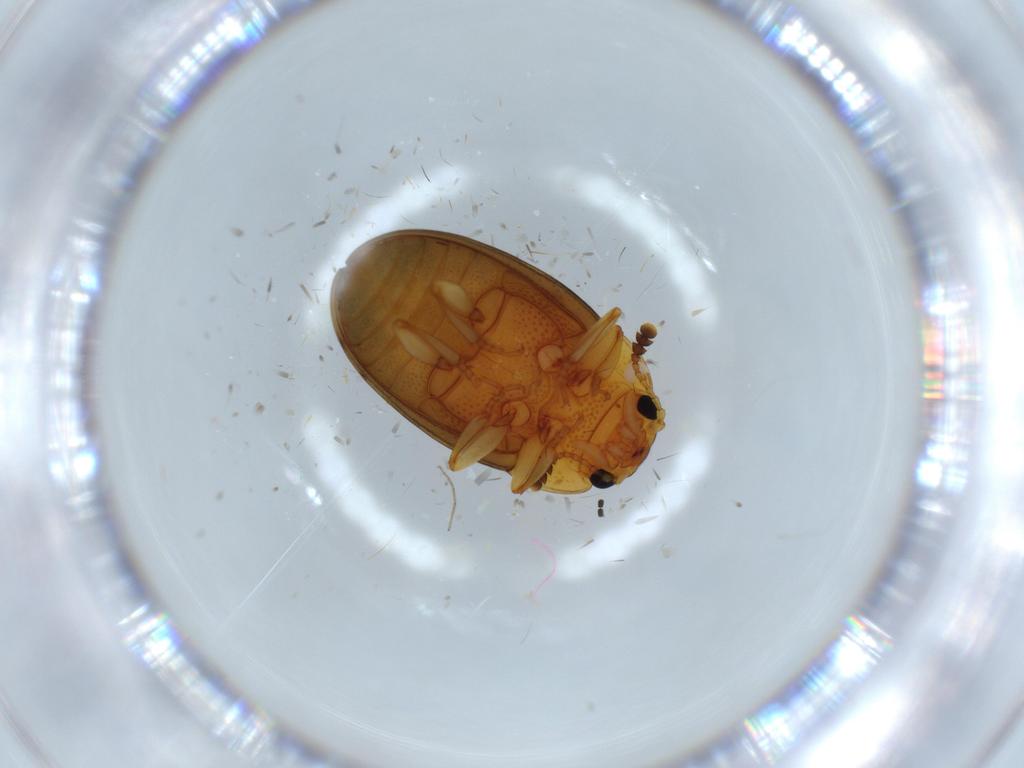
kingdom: Animalia
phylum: Arthropoda
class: Insecta
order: Coleoptera
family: Erotylidae
